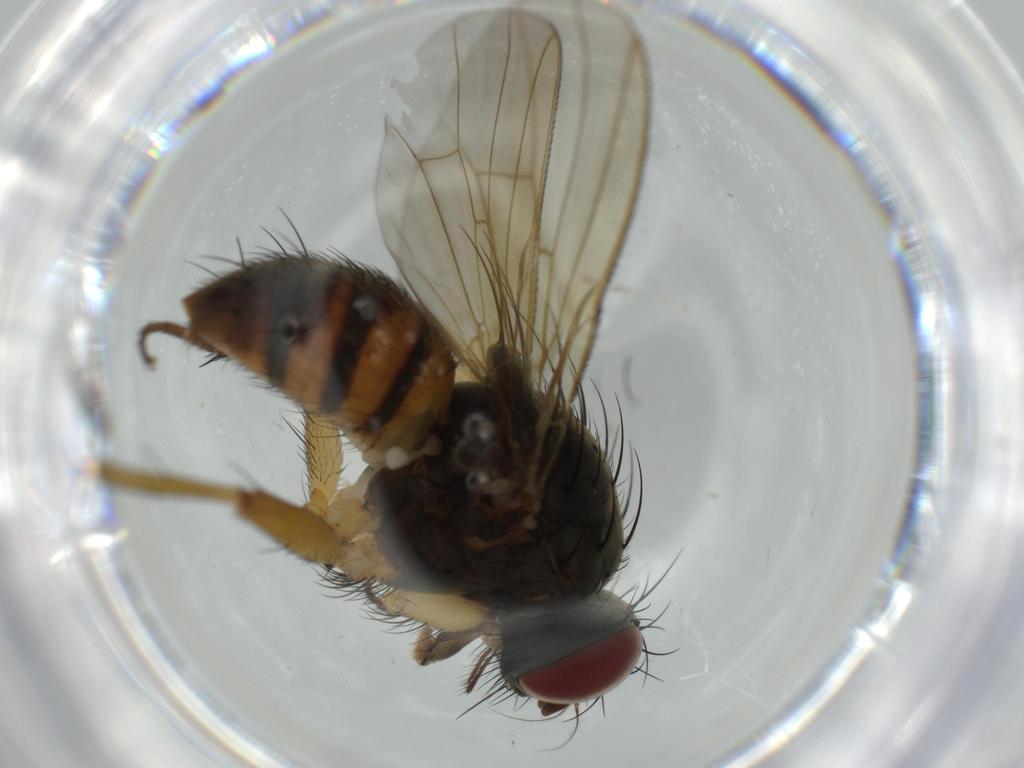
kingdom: Animalia
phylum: Arthropoda
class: Insecta
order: Diptera
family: Muscidae
